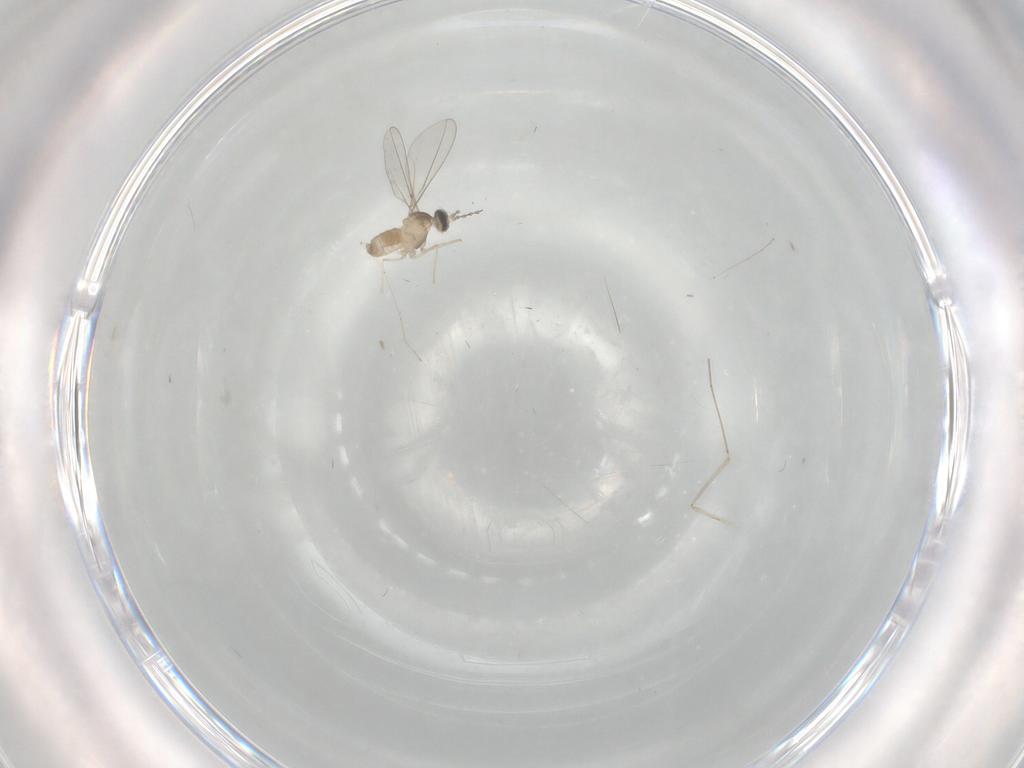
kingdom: Animalia
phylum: Arthropoda
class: Insecta
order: Diptera
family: Cecidomyiidae
